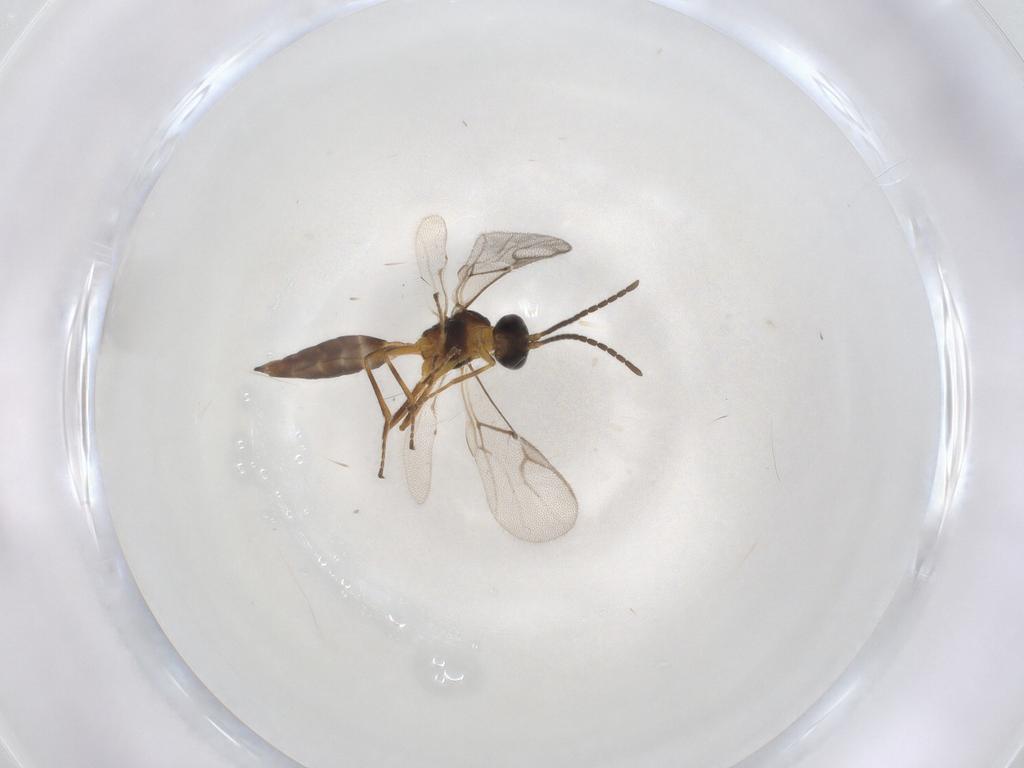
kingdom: Animalia
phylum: Arthropoda
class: Insecta
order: Hymenoptera
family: Braconidae
